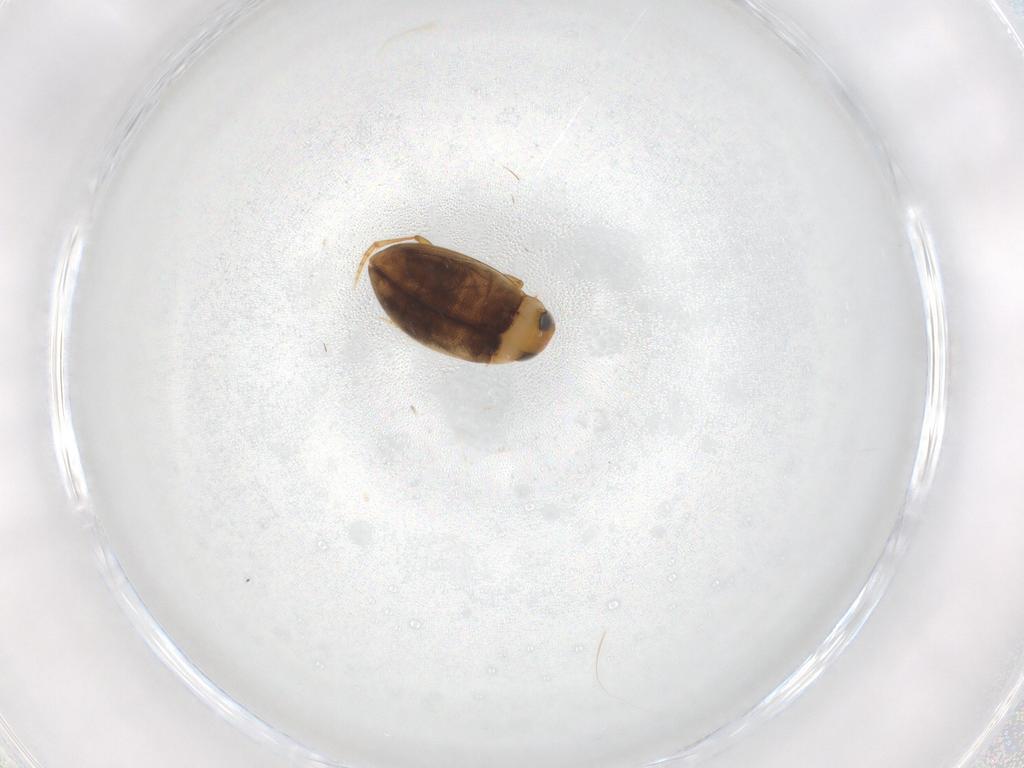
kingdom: Animalia
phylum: Arthropoda
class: Insecta
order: Coleoptera
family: Dytiscidae
